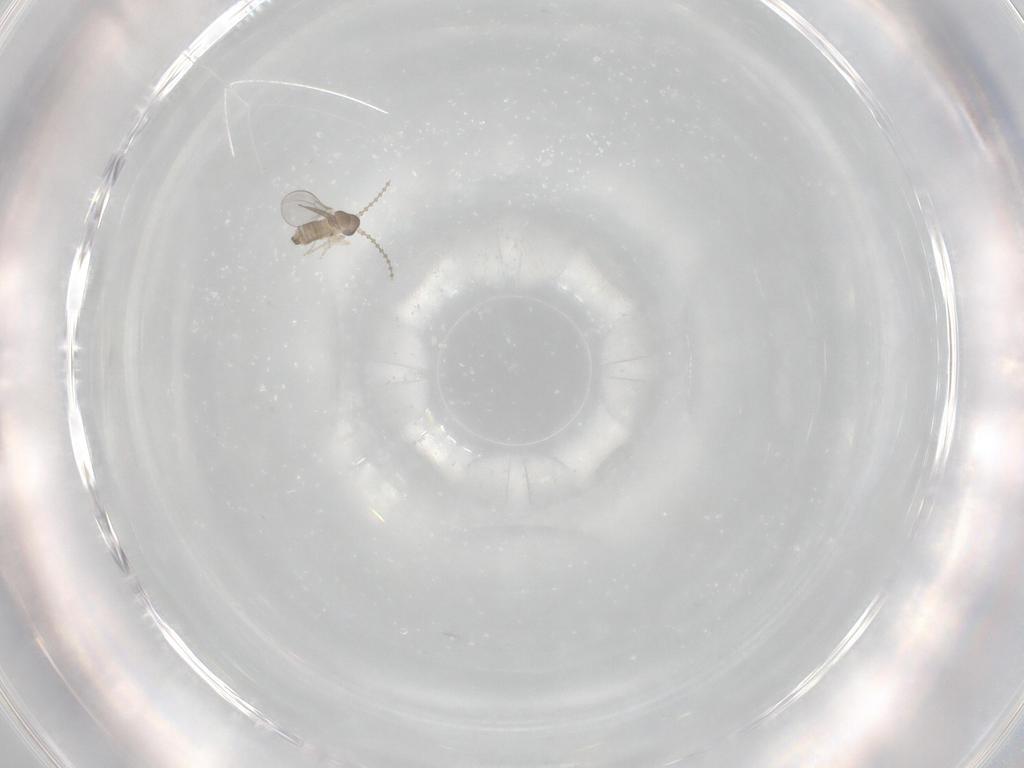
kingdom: Animalia
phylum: Arthropoda
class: Insecta
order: Diptera
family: Cecidomyiidae
